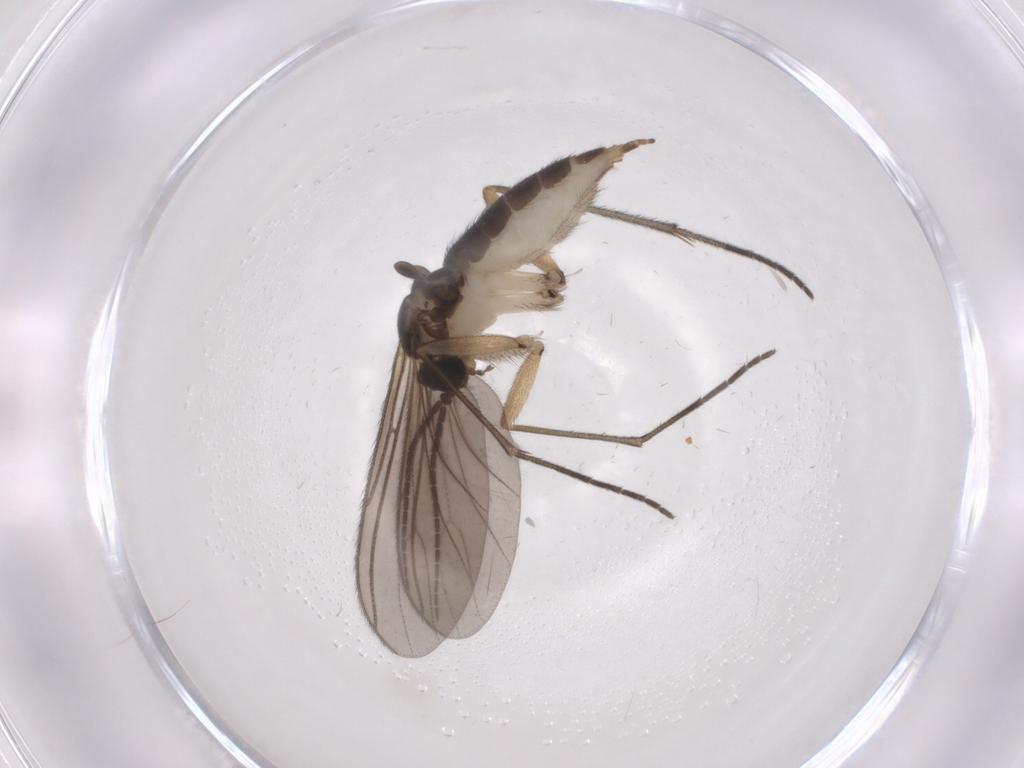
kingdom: Animalia
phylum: Arthropoda
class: Insecta
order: Diptera
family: Sciaridae
